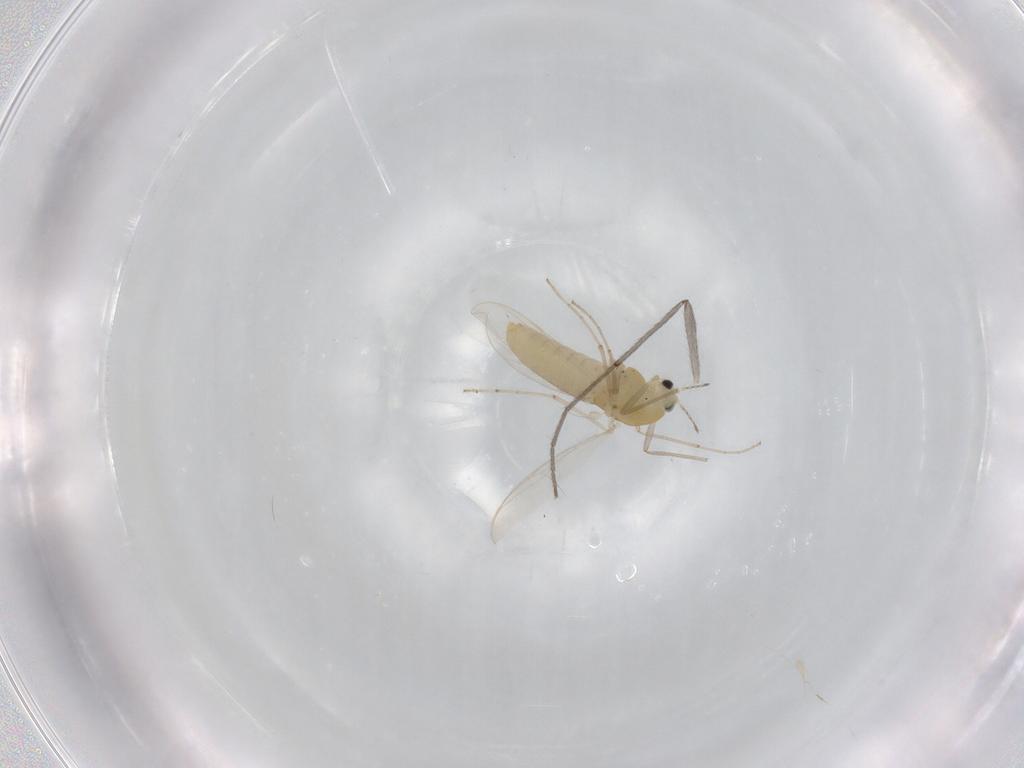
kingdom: Animalia
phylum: Arthropoda
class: Insecta
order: Diptera
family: Chironomidae
